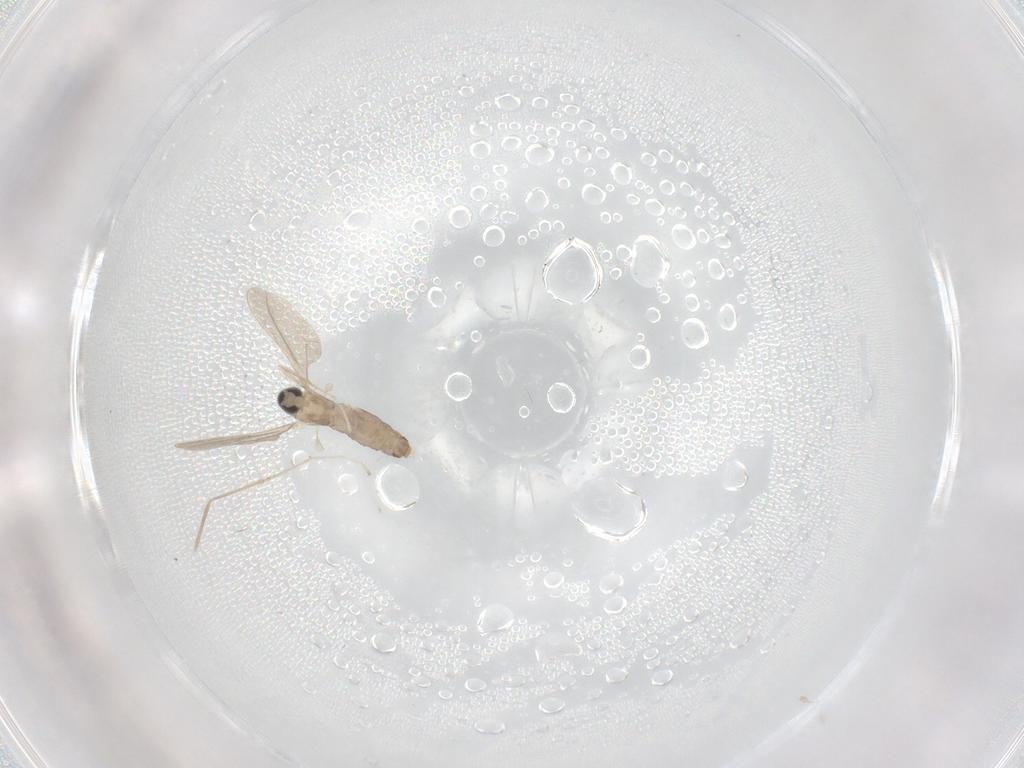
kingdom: Animalia
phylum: Arthropoda
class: Insecta
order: Diptera
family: Cecidomyiidae
